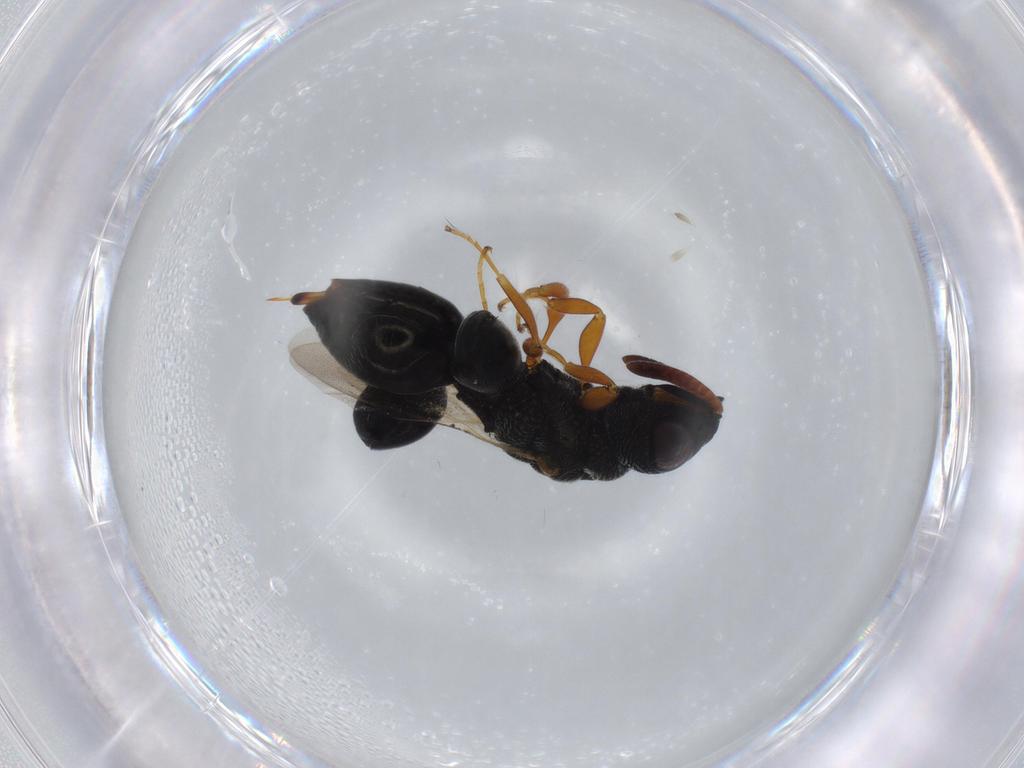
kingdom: Animalia
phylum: Arthropoda
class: Insecta
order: Hymenoptera
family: Chalcididae
